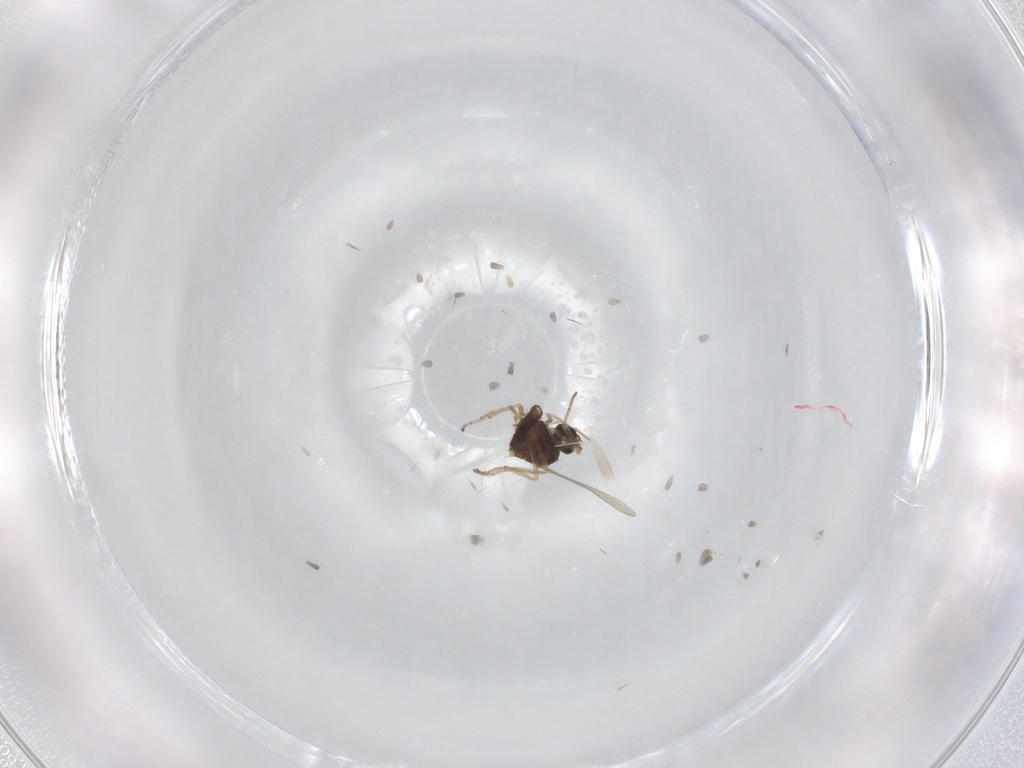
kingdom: Animalia
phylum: Arthropoda
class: Insecta
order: Diptera
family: Ceratopogonidae
